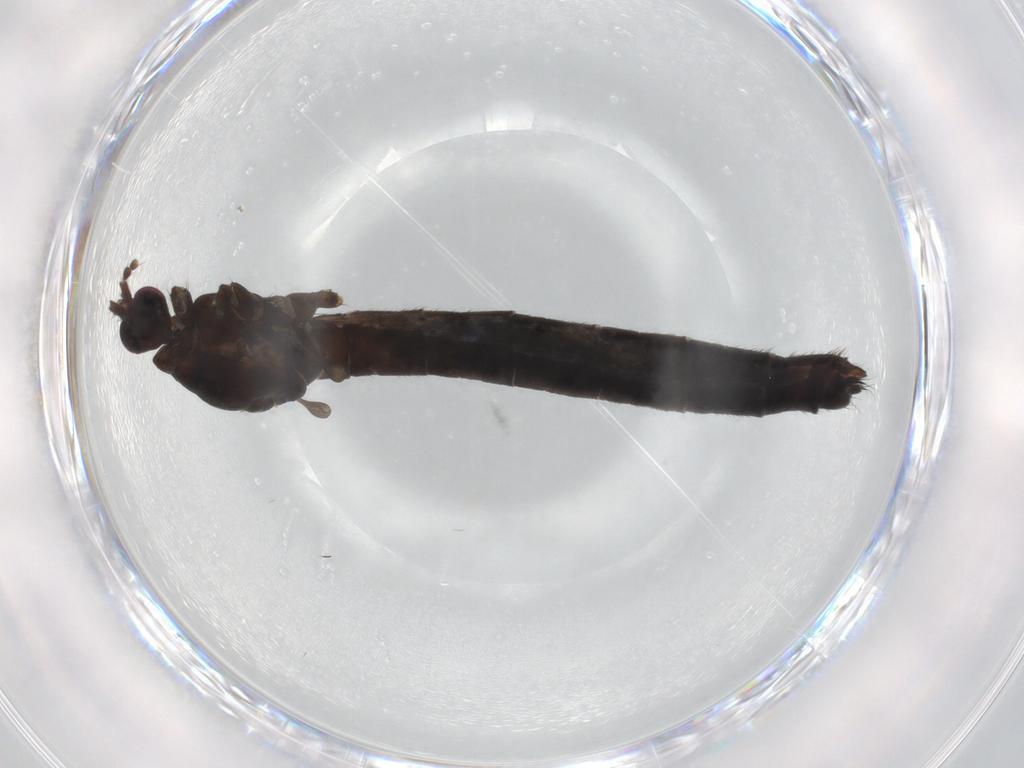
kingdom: Animalia
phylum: Arthropoda
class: Insecta
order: Diptera
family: Limoniidae
